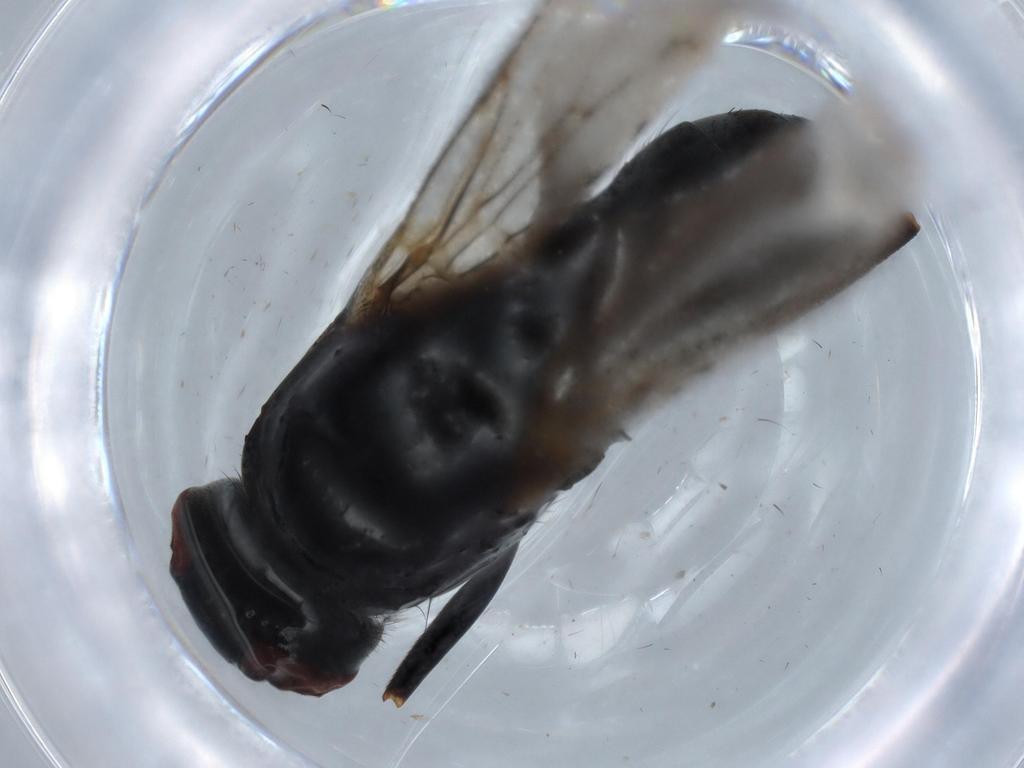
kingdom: Animalia
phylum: Arthropoda
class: Insecta
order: Diptera
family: Muscidae
